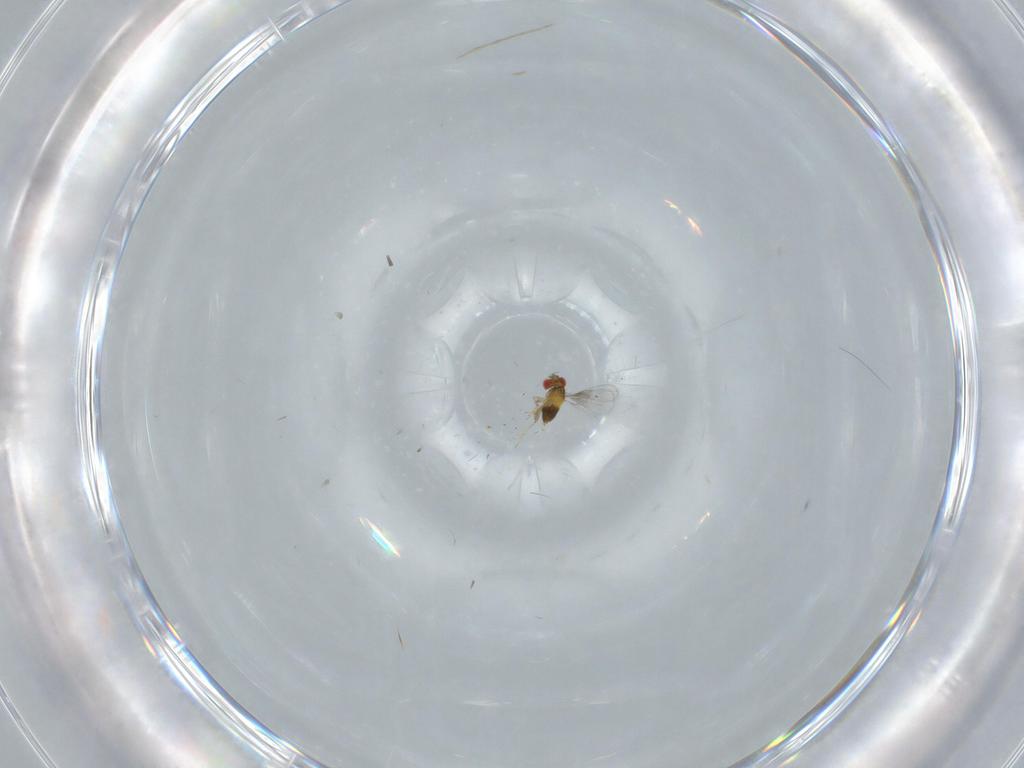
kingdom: Animalia
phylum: Arthropoda
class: Insecta
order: Hymenoptera
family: Trichogrammatidae
